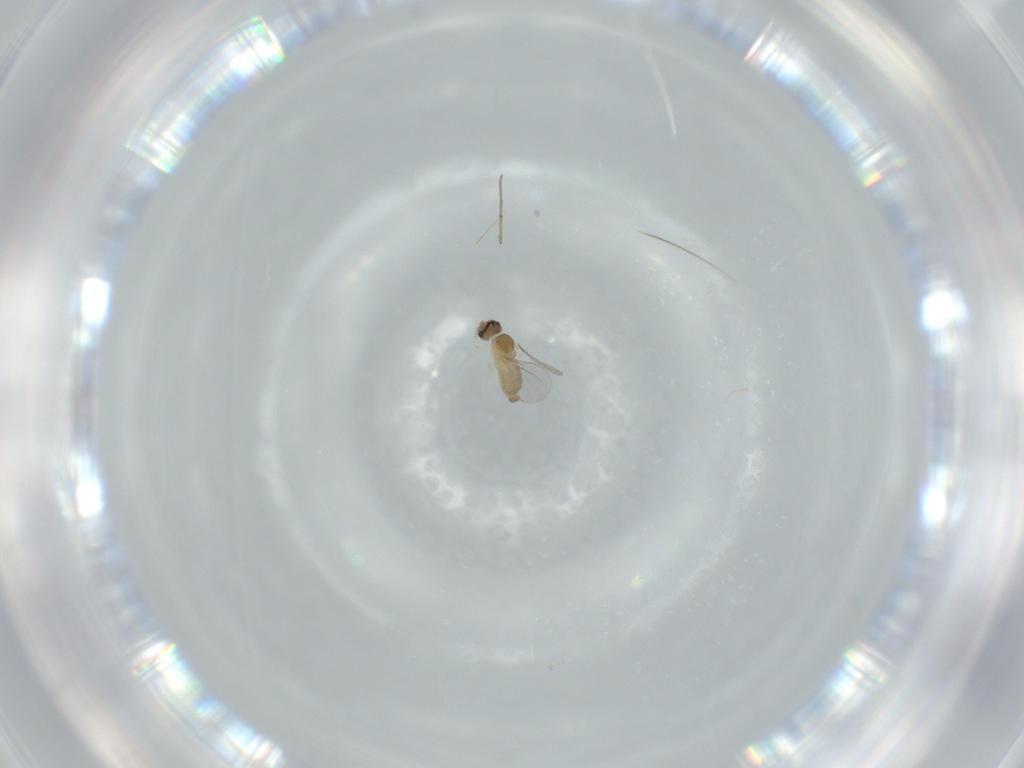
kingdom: Animalia
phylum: Arthropoda
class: Insecta
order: Diptera
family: Cecidomyiidae
